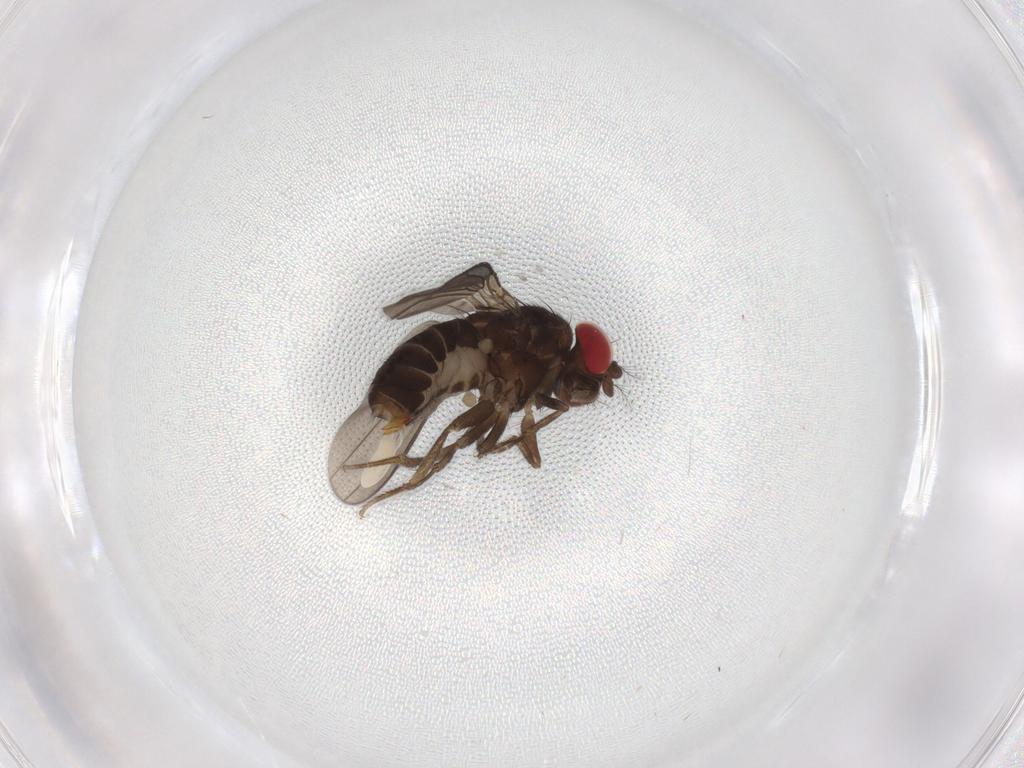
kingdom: Animalia
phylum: Arthropoda
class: Insecta
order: Diptera
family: Drosophilidae
